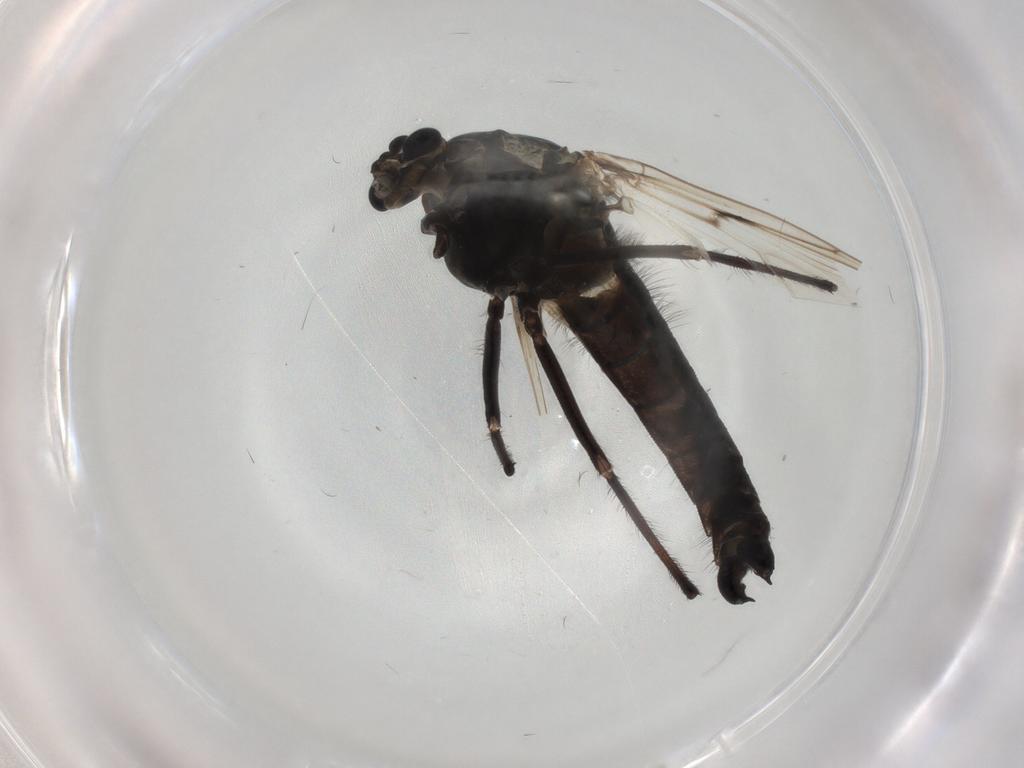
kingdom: Animalia
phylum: Arthropoda
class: Insecta
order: Diptera
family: Chironomidae
